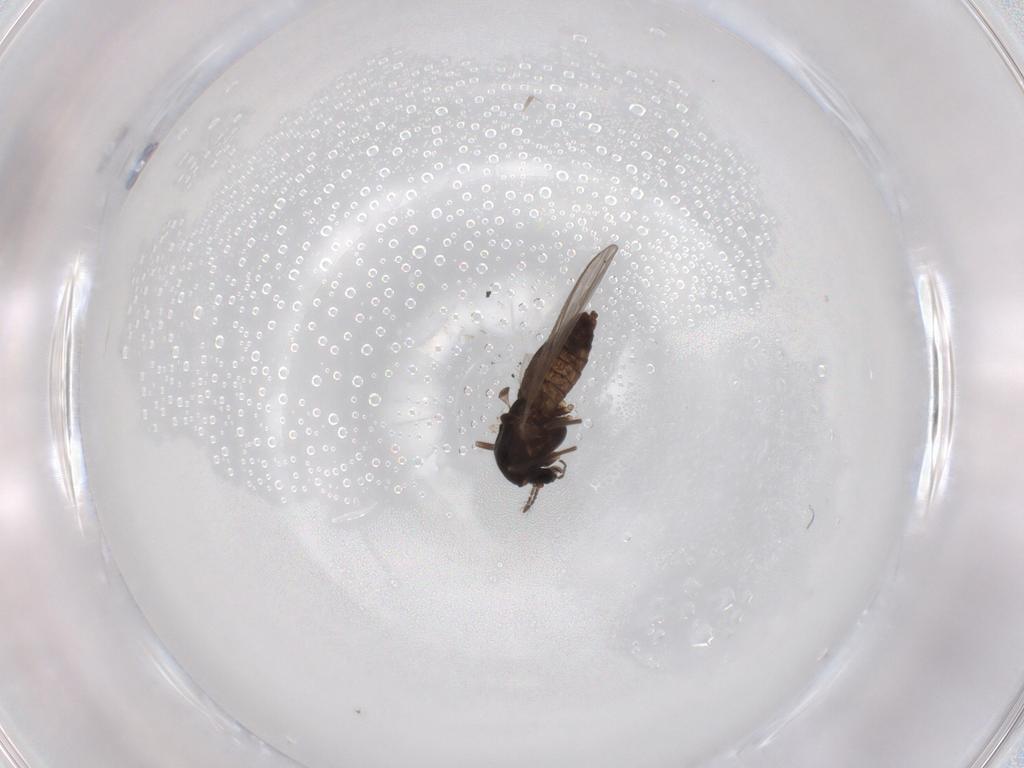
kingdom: Animalia
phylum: Arthropoda
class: Insecta
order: Diptera
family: Chironomidae
